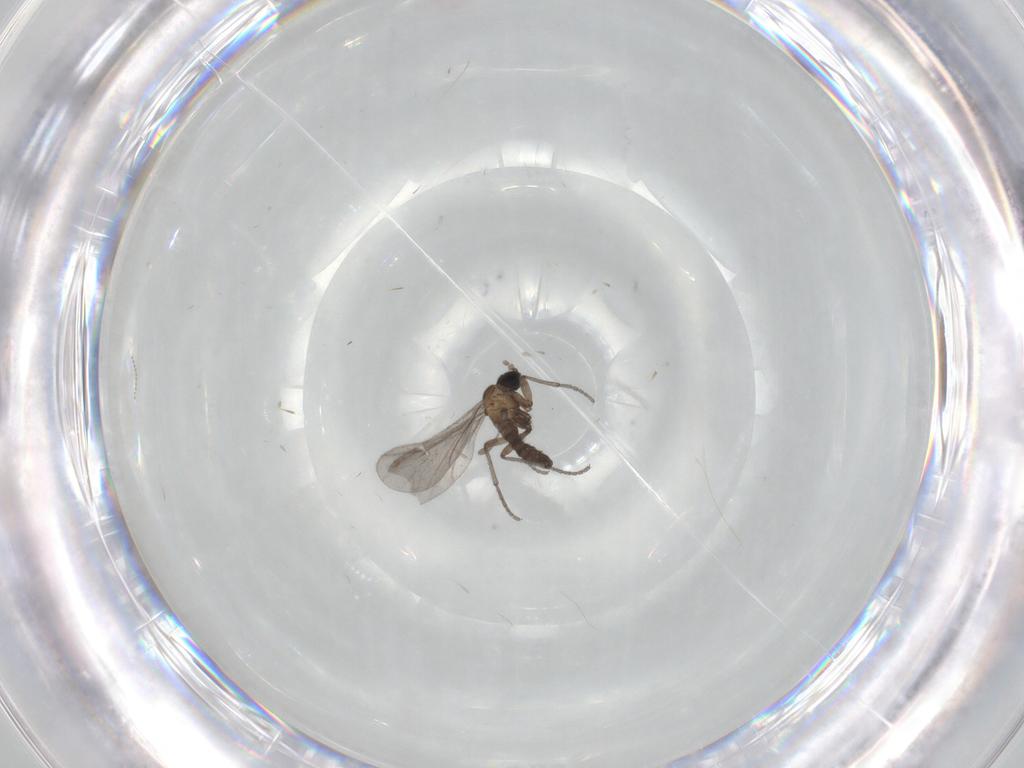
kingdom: Animalia
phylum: Arthropoda
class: Insecta
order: Diptera
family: Sciaridae
